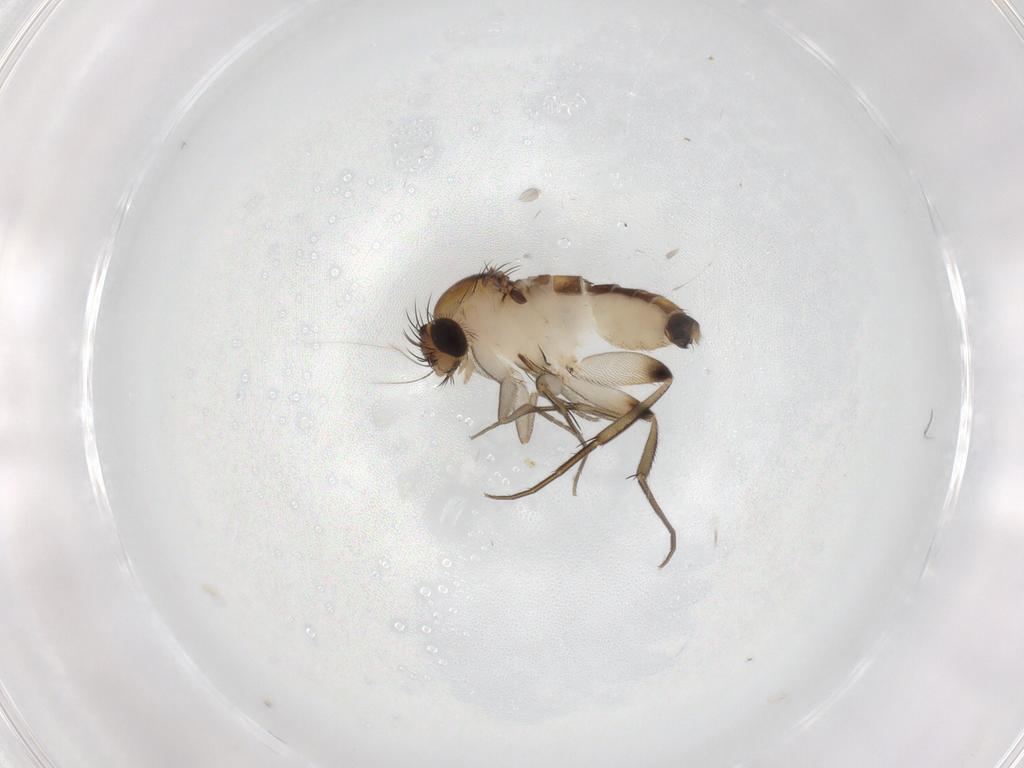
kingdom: Animalia
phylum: Arthropoda
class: Insecta
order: Diptera
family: Phoridae
